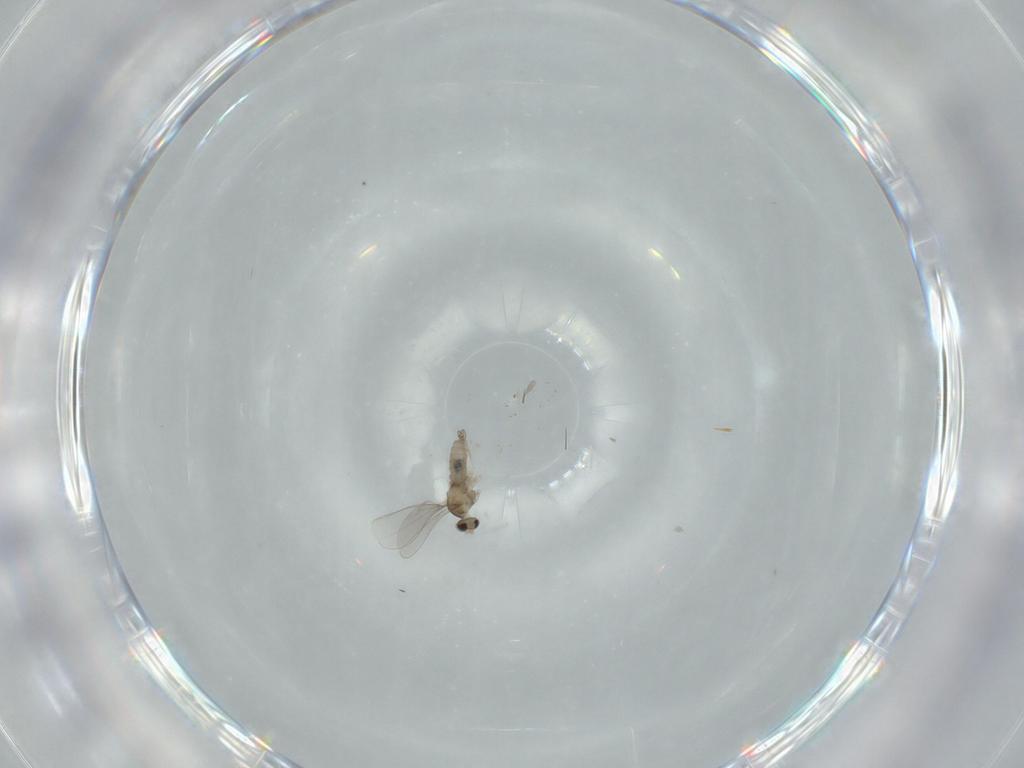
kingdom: Animalia
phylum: Arthropoda
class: Insecta
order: Diptera
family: Cecidomyiidae
